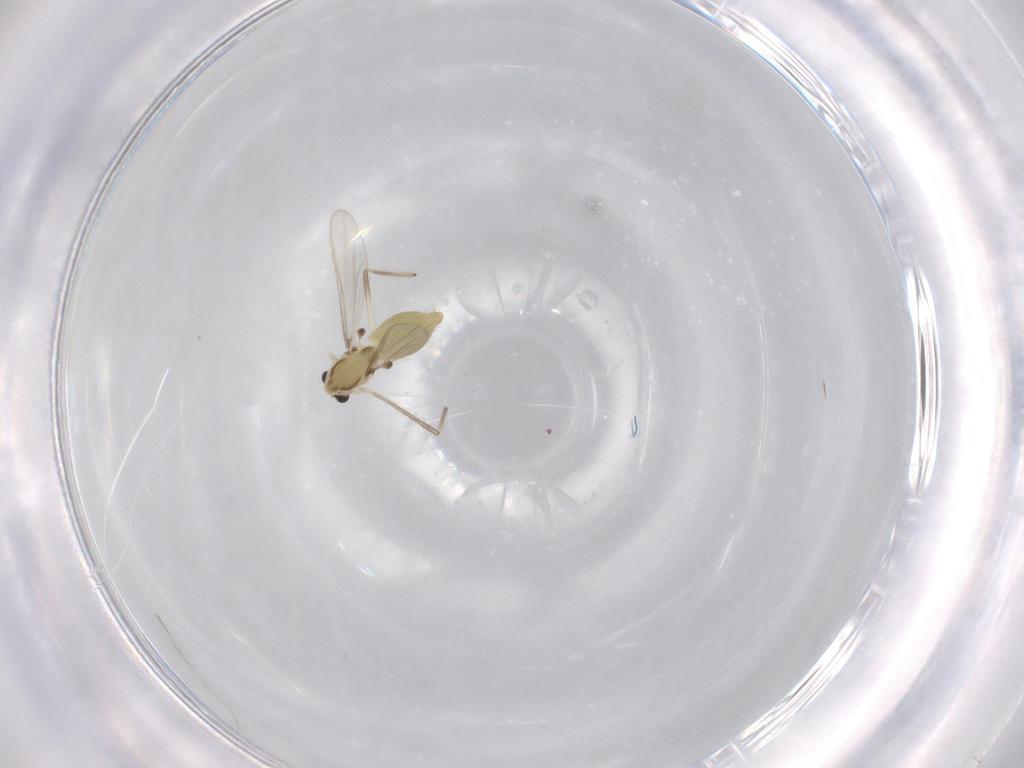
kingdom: Animalia
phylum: Arthropoda
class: Insecta
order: Diptera
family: Chironomidae
